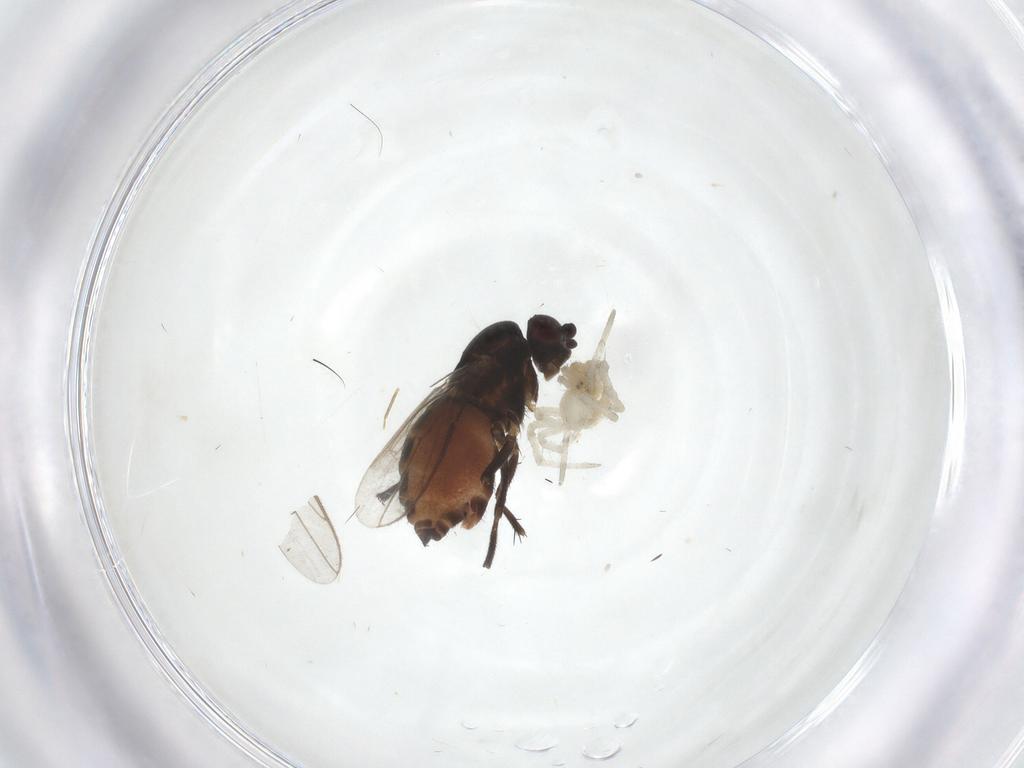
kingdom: Animalia
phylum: Arthropoda
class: Insecta
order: Diptera
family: Sphaeroceridae
